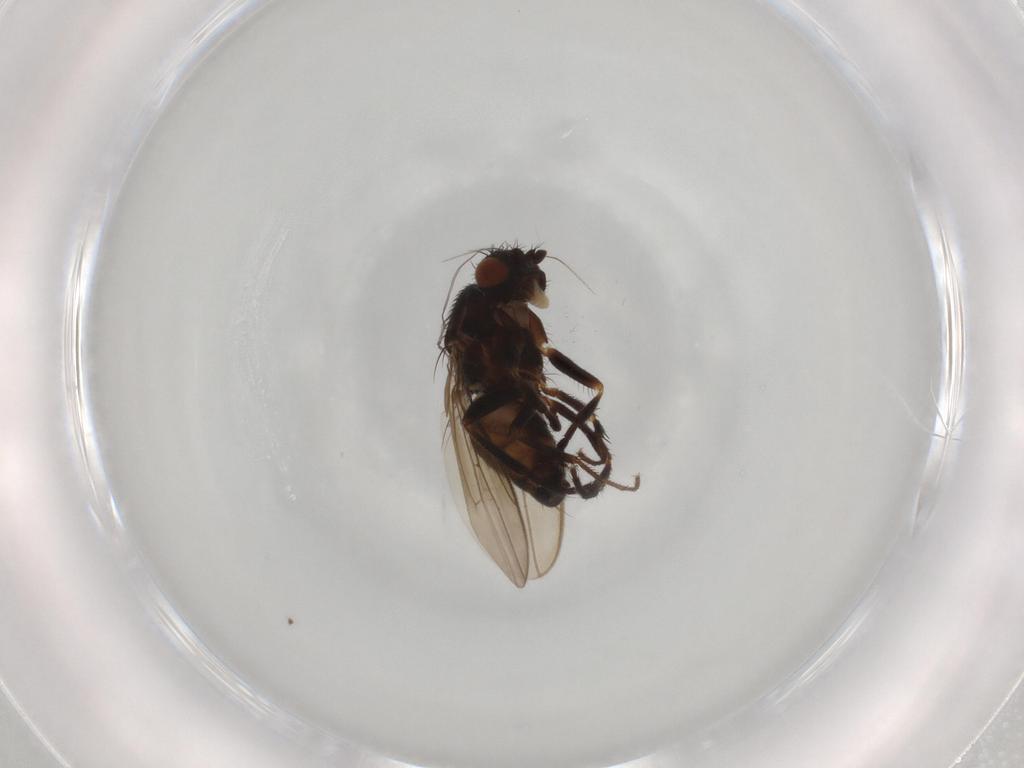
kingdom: Animalia
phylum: Arthropoda
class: Insecta
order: Diptera
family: Sphaeroceridae
